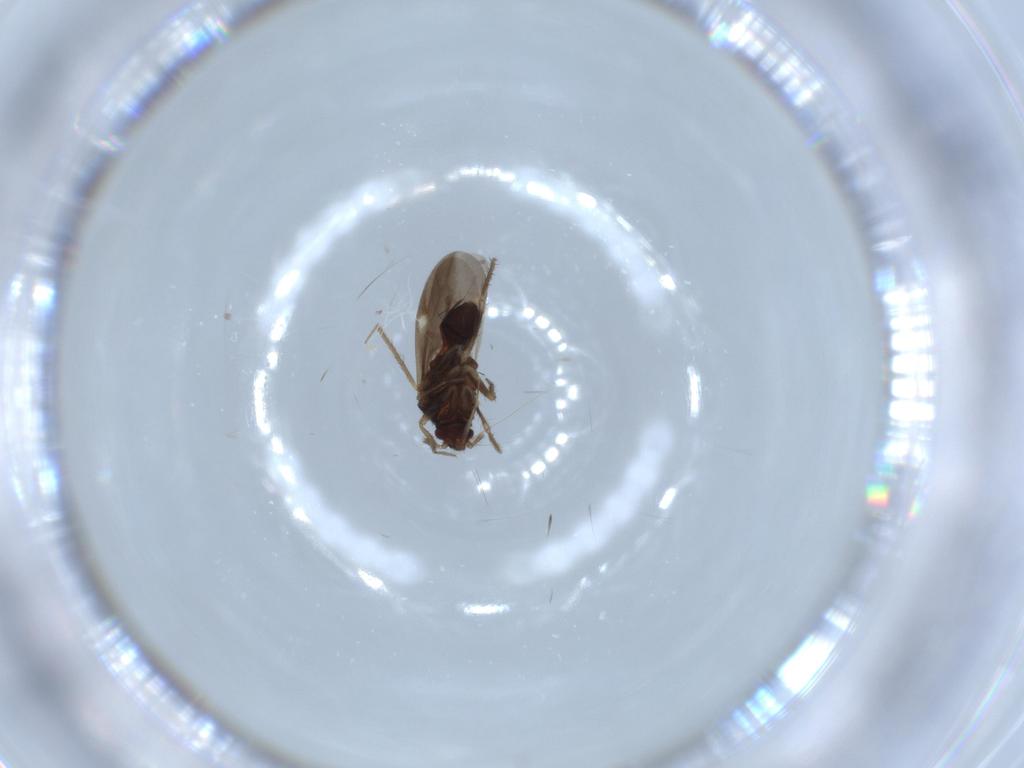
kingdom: Animalia
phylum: Arthropoda
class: Insecta
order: Hemiptera
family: Ceratocombidae
